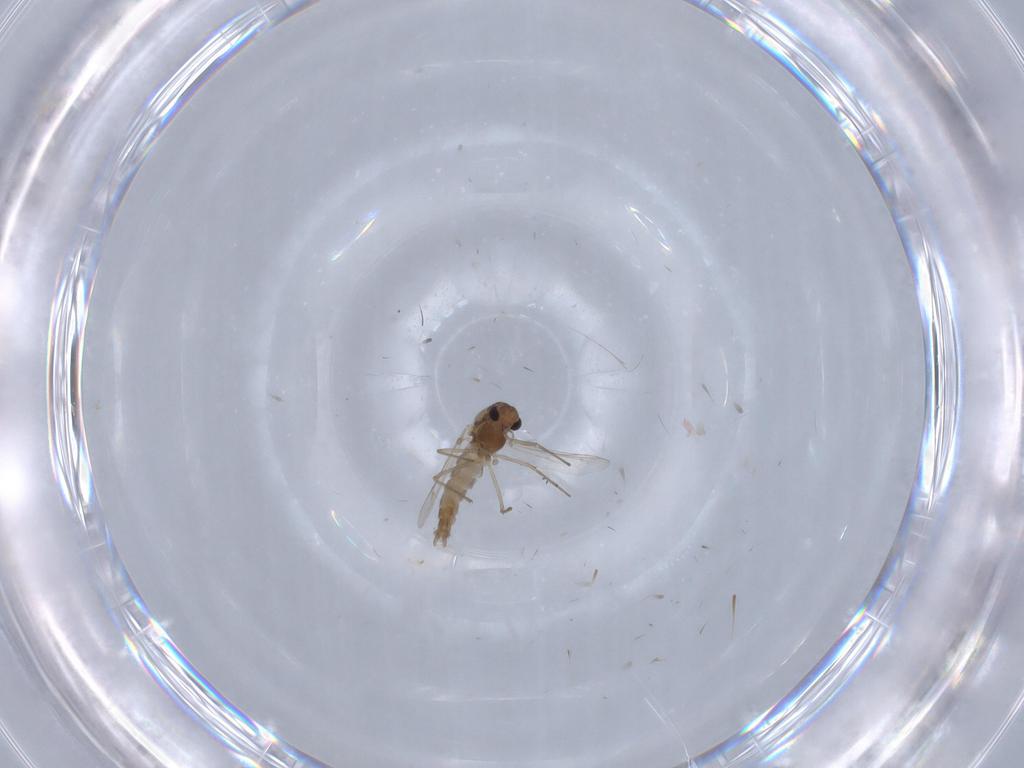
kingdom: Animalia
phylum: Arthropoda
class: Insecta
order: Diptera
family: Chironomidae
